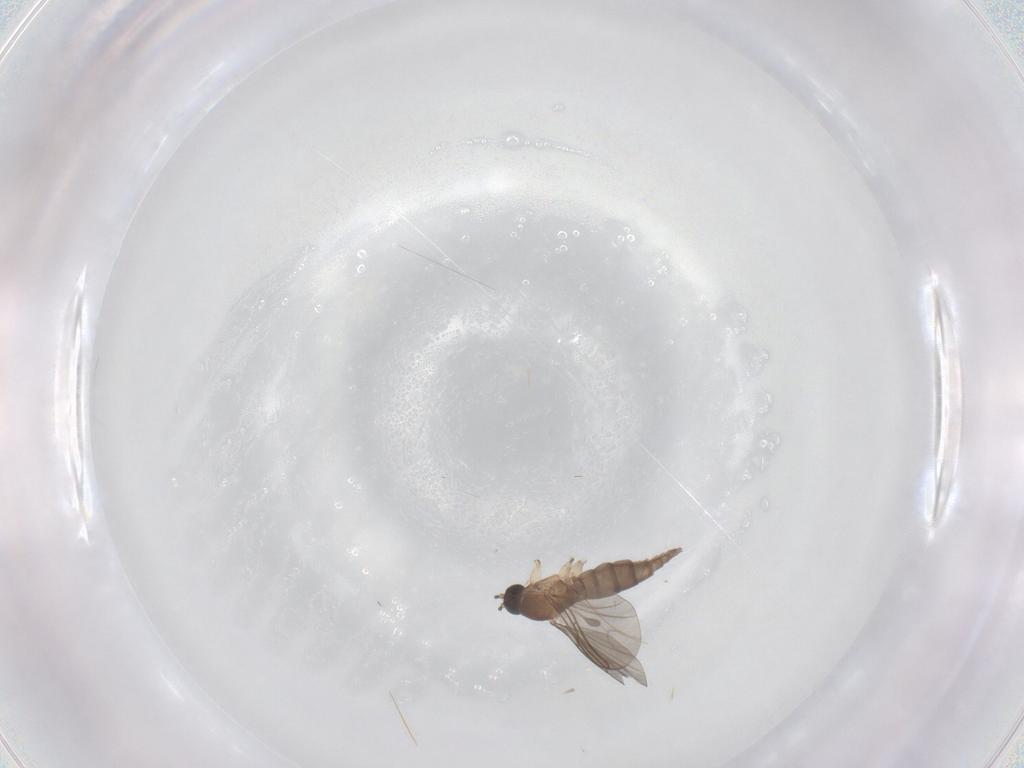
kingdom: Animalia
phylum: Arthropoda
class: Insecta
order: Diptera
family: Sciaridae
